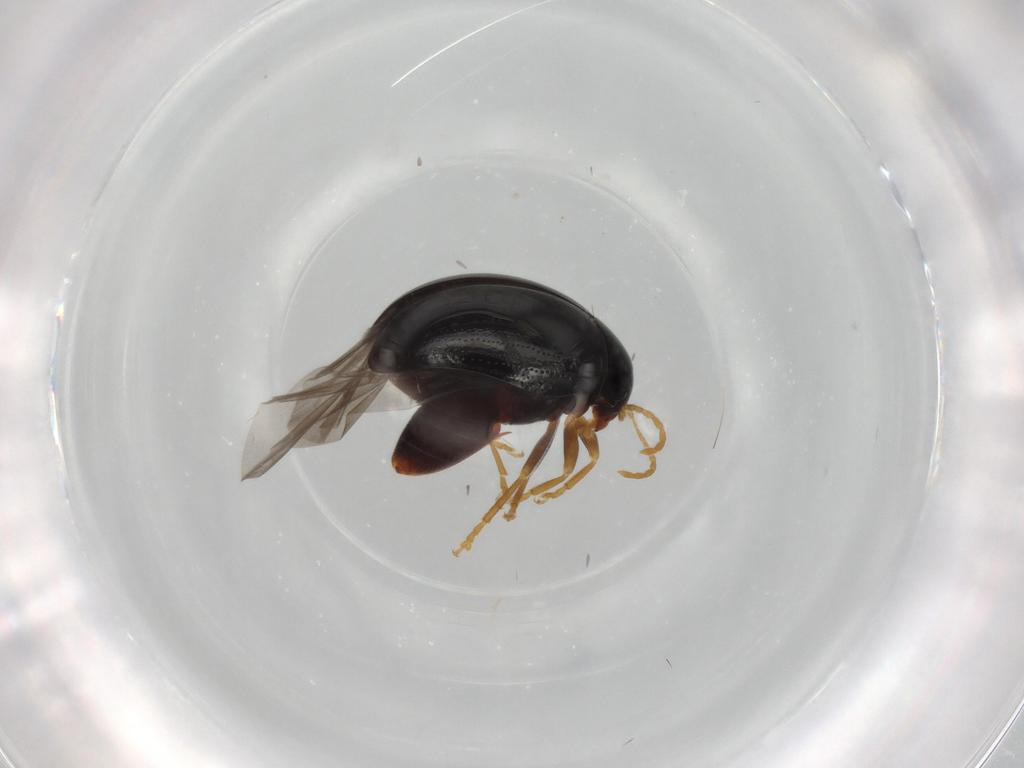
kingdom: Animalia
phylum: Arthropoda
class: Insecta
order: Coleoptera
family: Chrysomelidae
